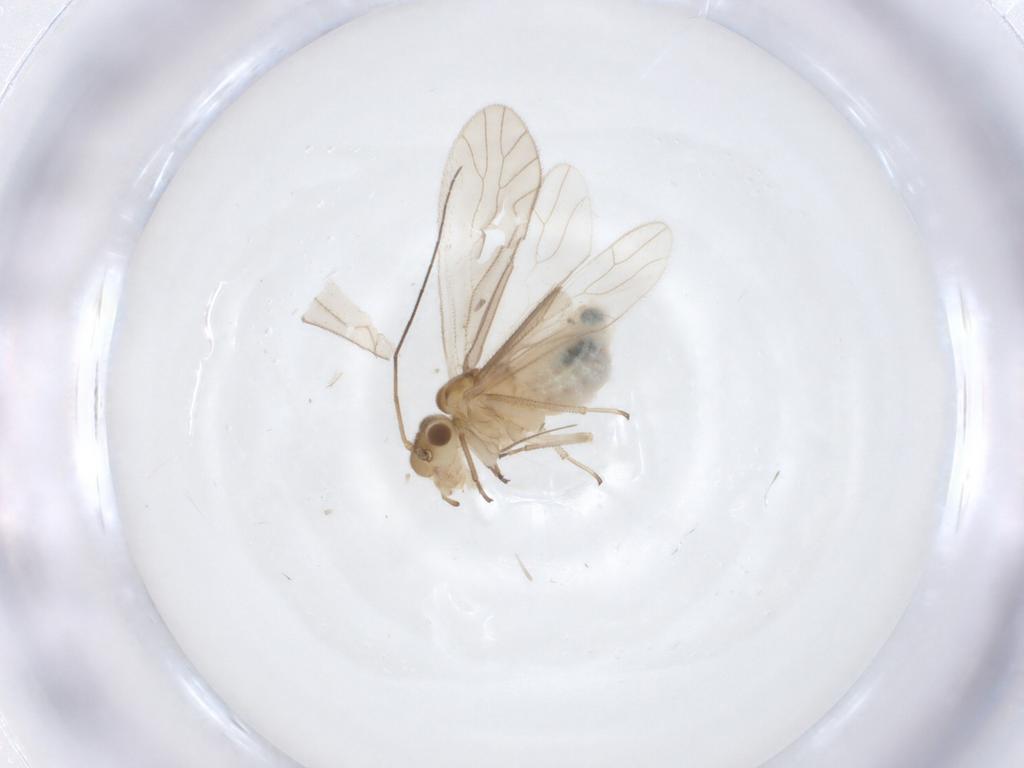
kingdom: Animalia
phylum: Arthropoda
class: Insecta
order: Psocodea
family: Caeciliusidae
